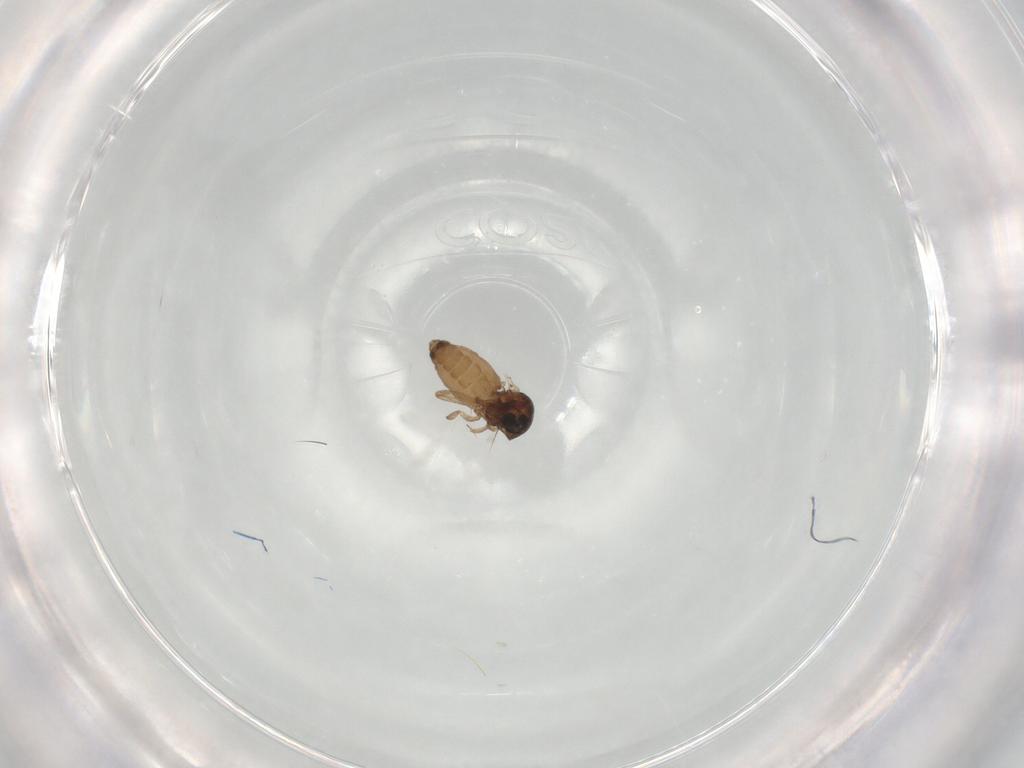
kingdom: Animalia
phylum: Arthropoda
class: Insecta
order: Diptera
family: Ceratopogonidae
